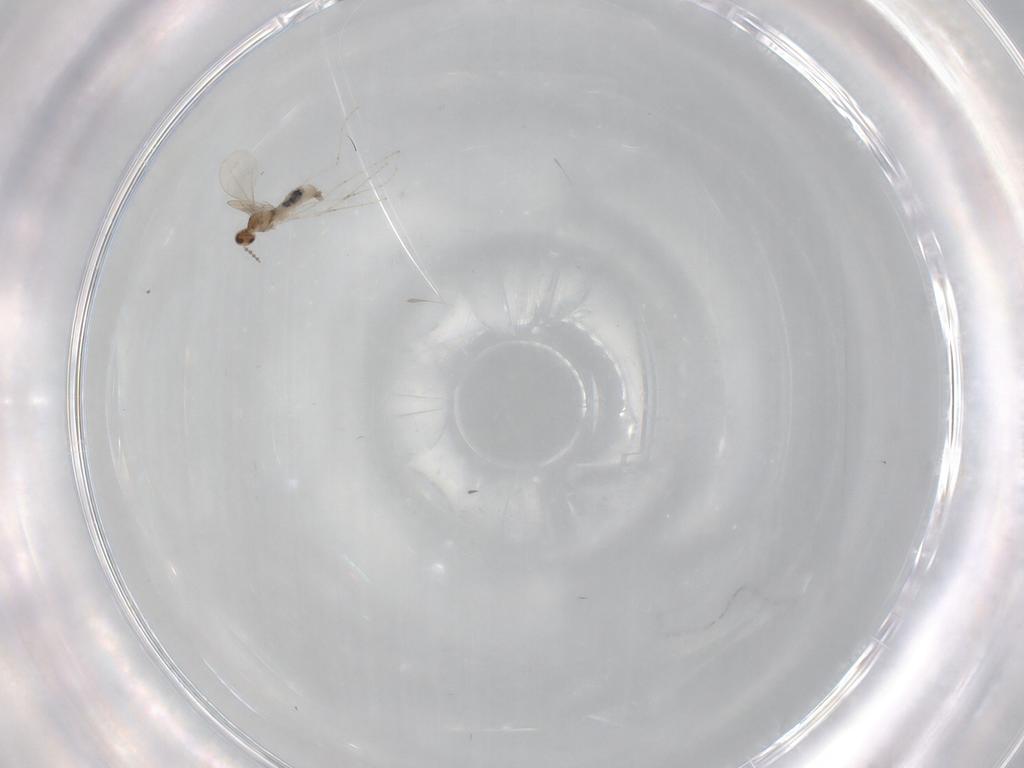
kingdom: Animalia
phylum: Arthropoda
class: Insecta
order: Diptera
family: Cecidomyiidae
